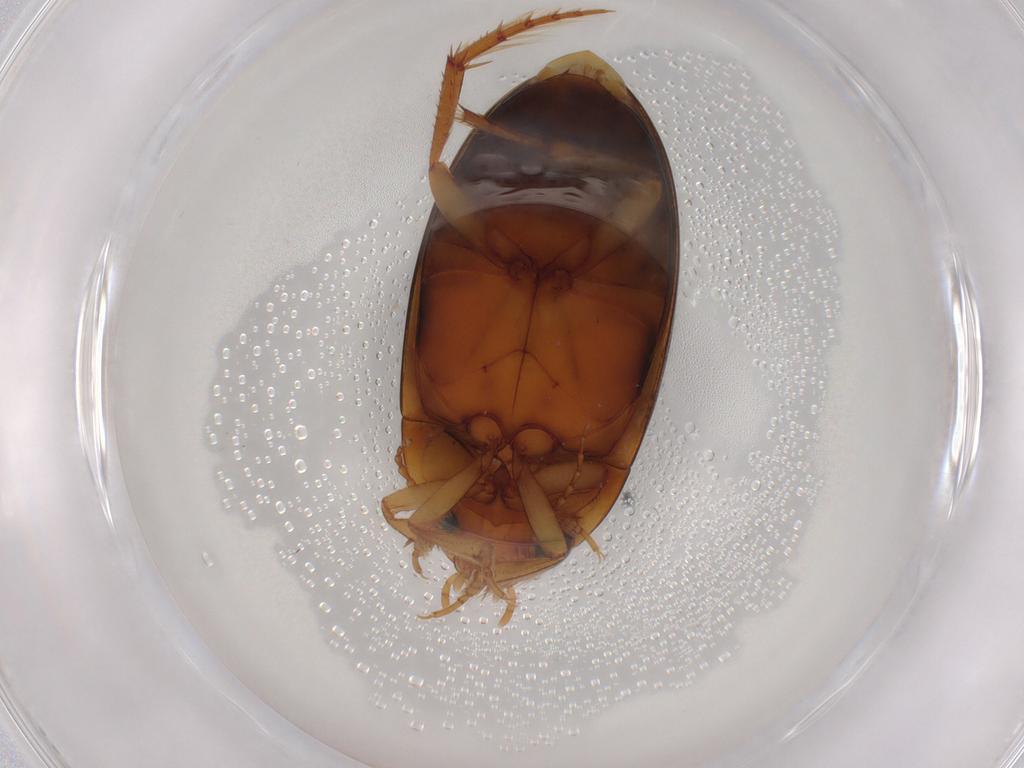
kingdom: Animalia
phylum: Arthropoda
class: Insecta
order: Coleoptera
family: Dytiscidae
